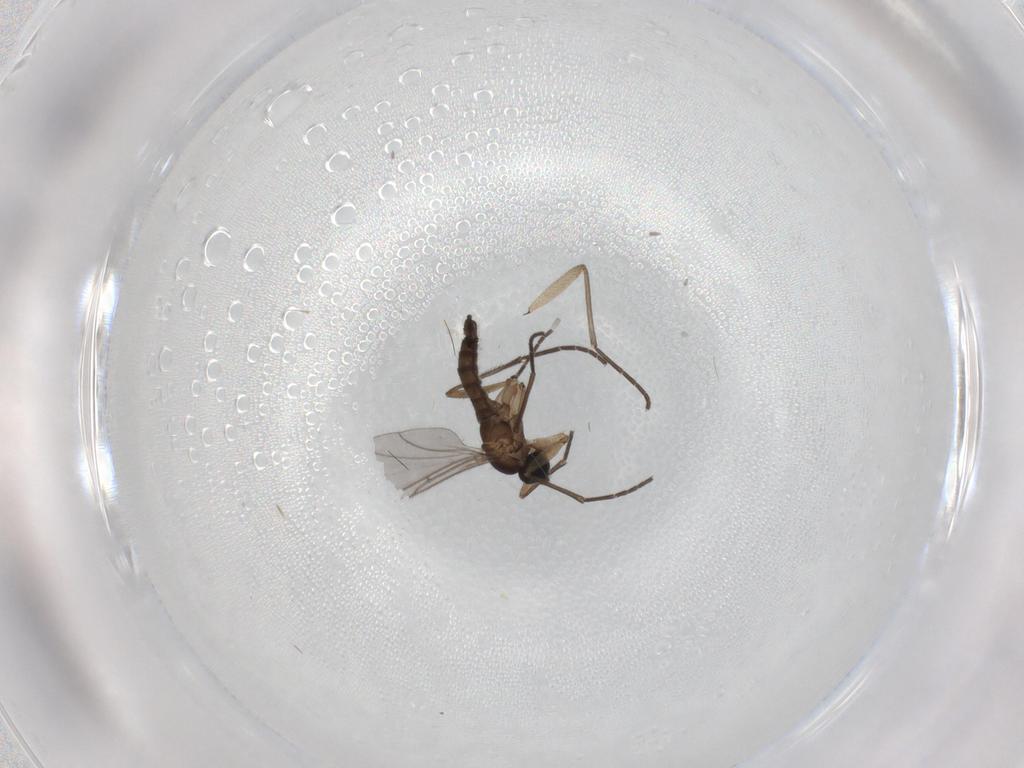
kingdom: Animalia
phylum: Arthropoda
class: Insecta
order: Diptera
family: Sciaridae
